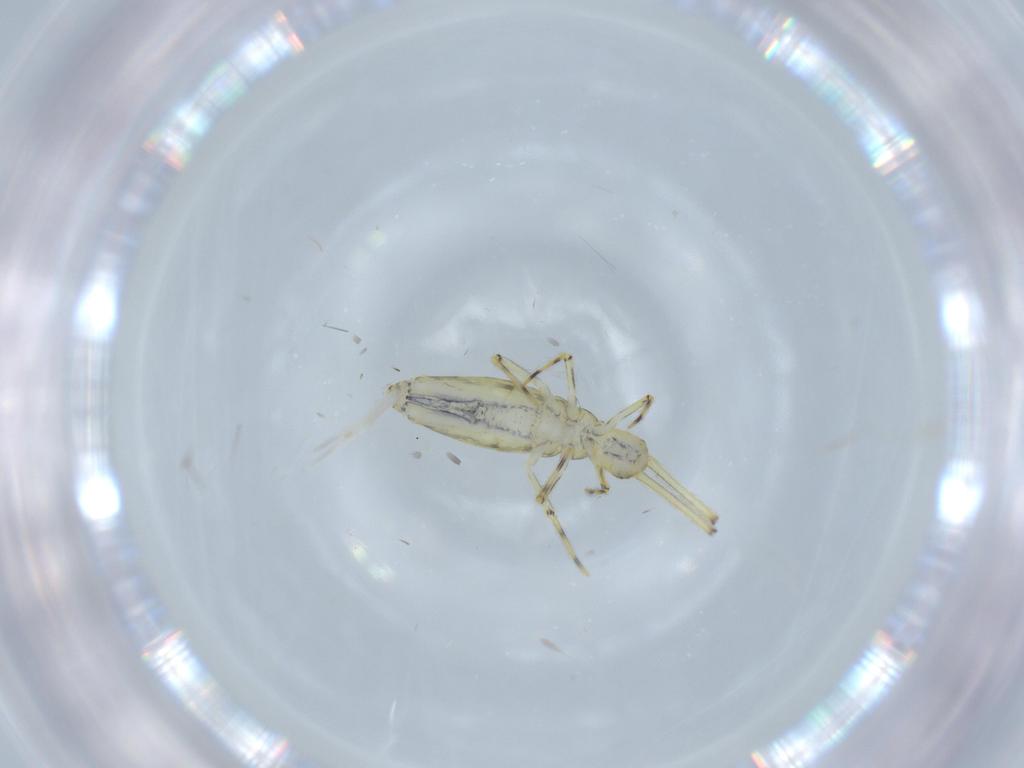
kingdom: Animalia
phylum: Arthropoda
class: Collembola
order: Entomobryomorpha
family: Paronellidae
